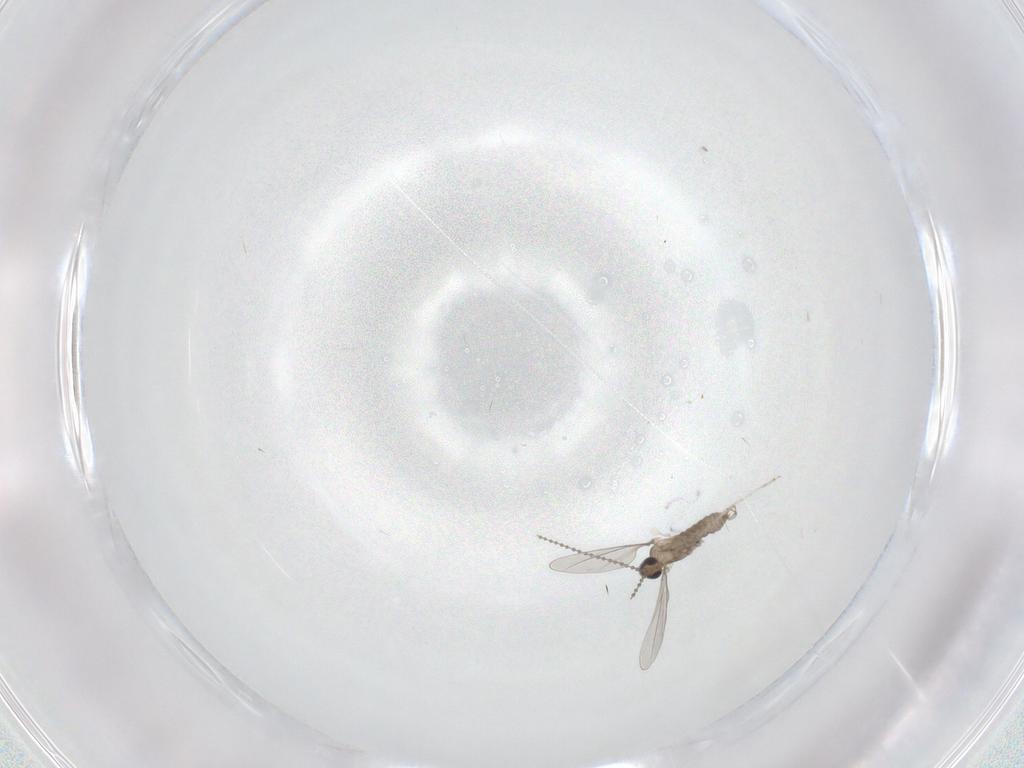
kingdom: Animalia
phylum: Arthropoda
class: Insecta
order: Diptera
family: Cecidomyiidae
